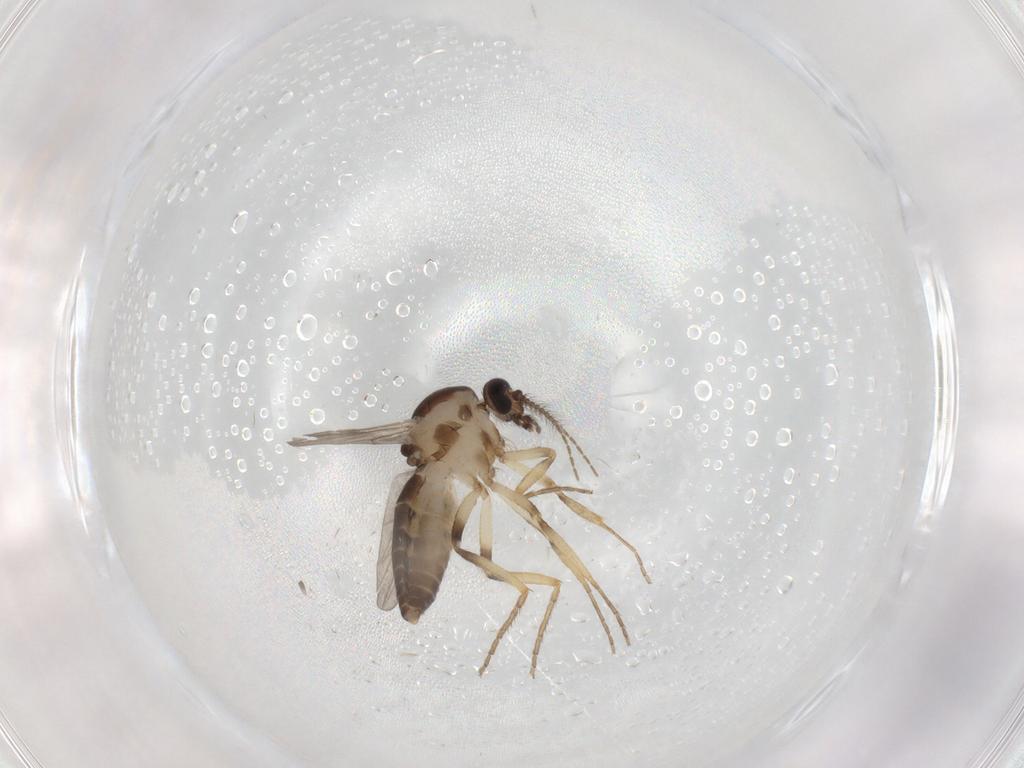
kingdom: Animalia
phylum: Arthropoda
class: Insecta
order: Diptera
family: Ceratopogonidae
